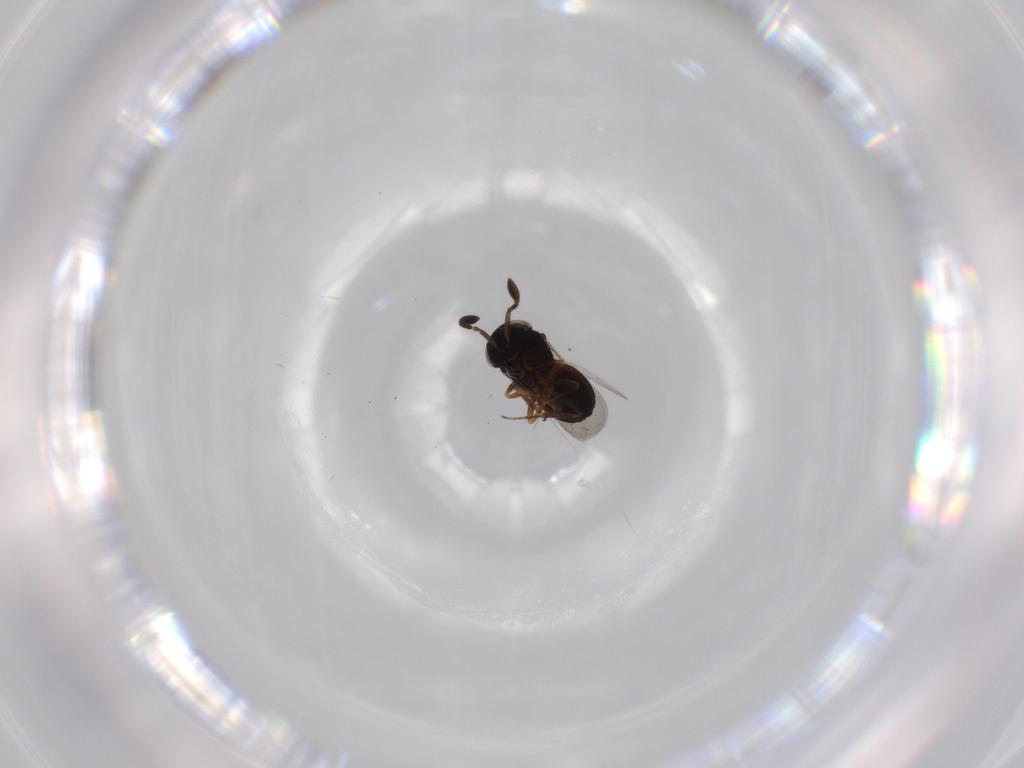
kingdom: Animalia
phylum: Arthropoda
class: Insecta
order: Hymenoptera
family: Scelionidae
